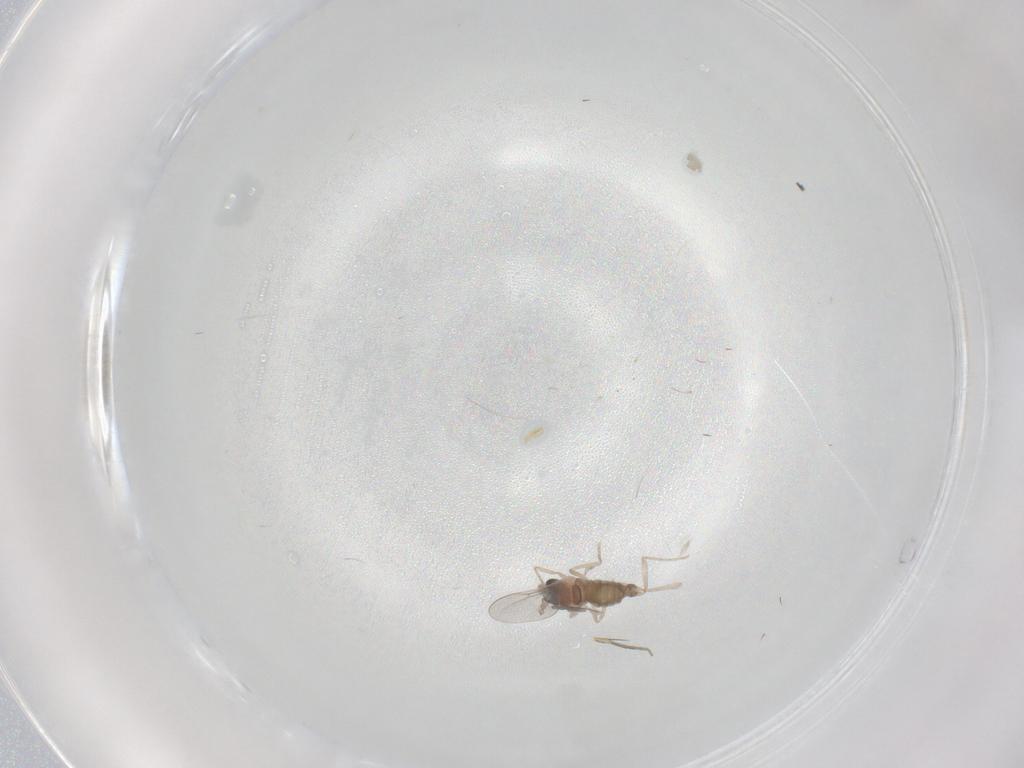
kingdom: Animalia
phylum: Arthropoda
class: Insecta
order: Diptera
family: Cecidomyiidae
